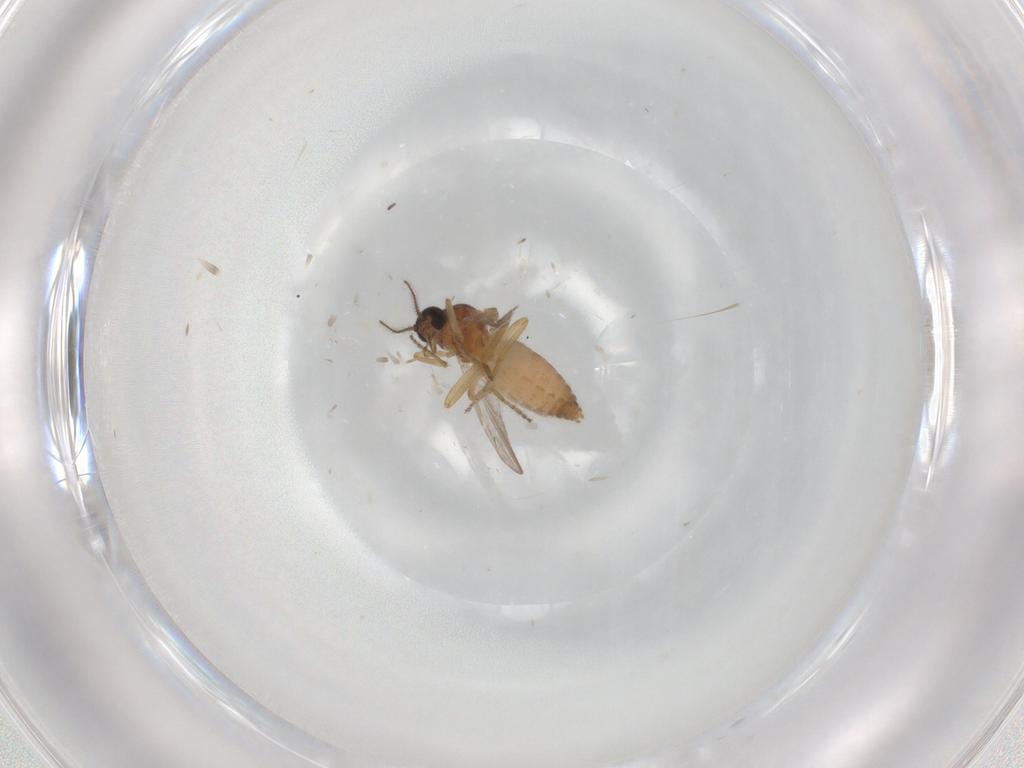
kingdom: Animalia
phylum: Arthropoda
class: Insecta
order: Diptera
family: Ceratopogonidae
